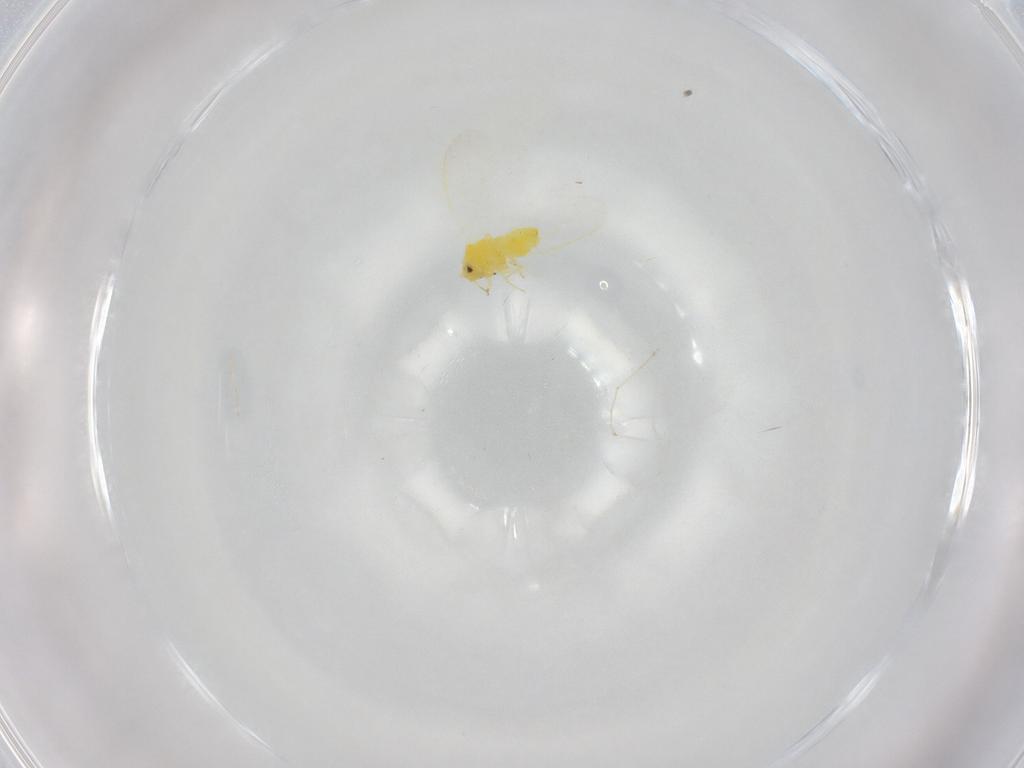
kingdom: Animalia
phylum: Arthropoda
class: Insecta
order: Hemiptera
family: Aleyrodidae
